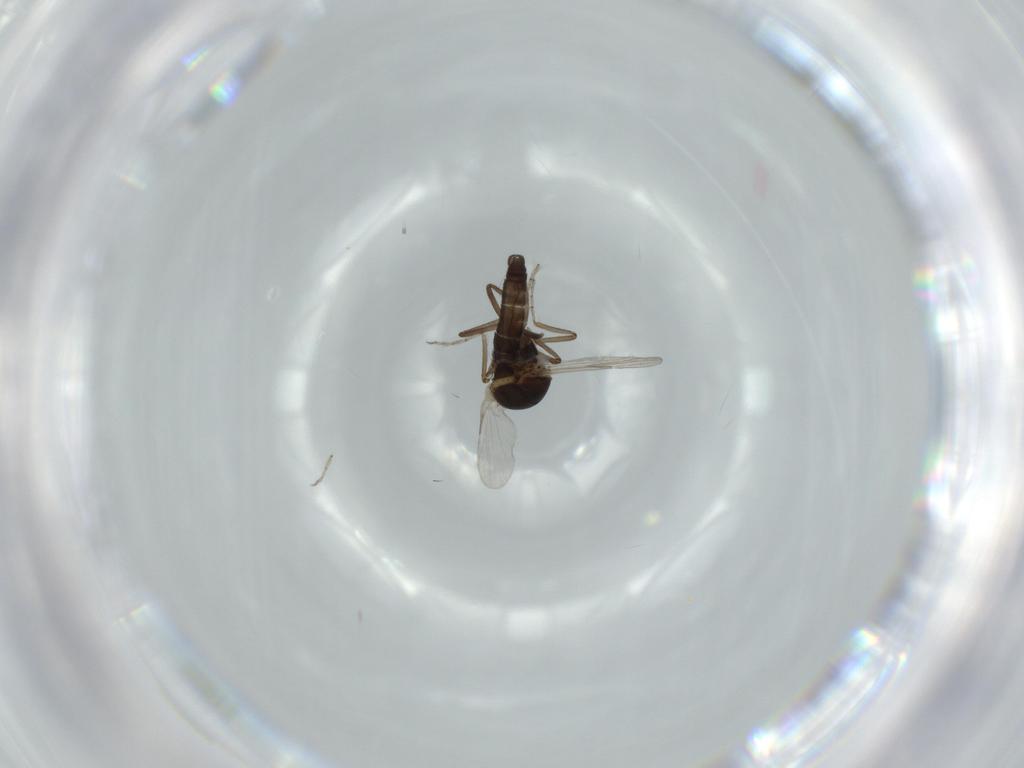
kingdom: Animalia
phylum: Arthropoda
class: Insecta
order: Diptera
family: Ceratopogonidae
